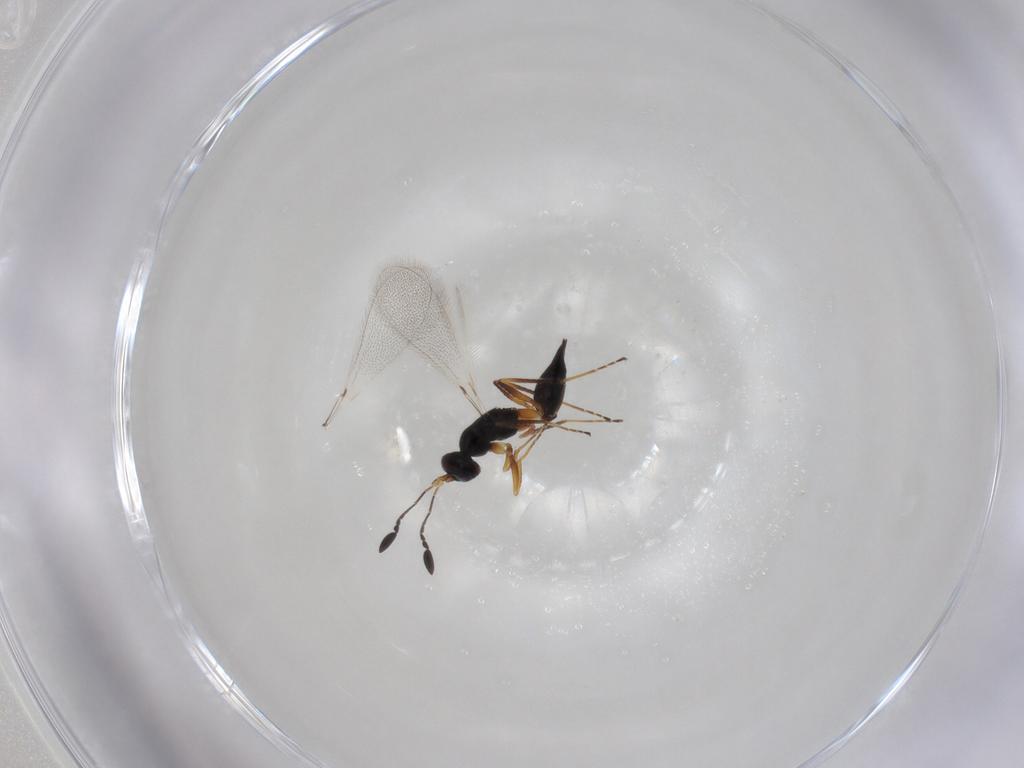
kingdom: Animalia
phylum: Arthropoda
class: Insecta
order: Hymenoptera
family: Mymaridae
